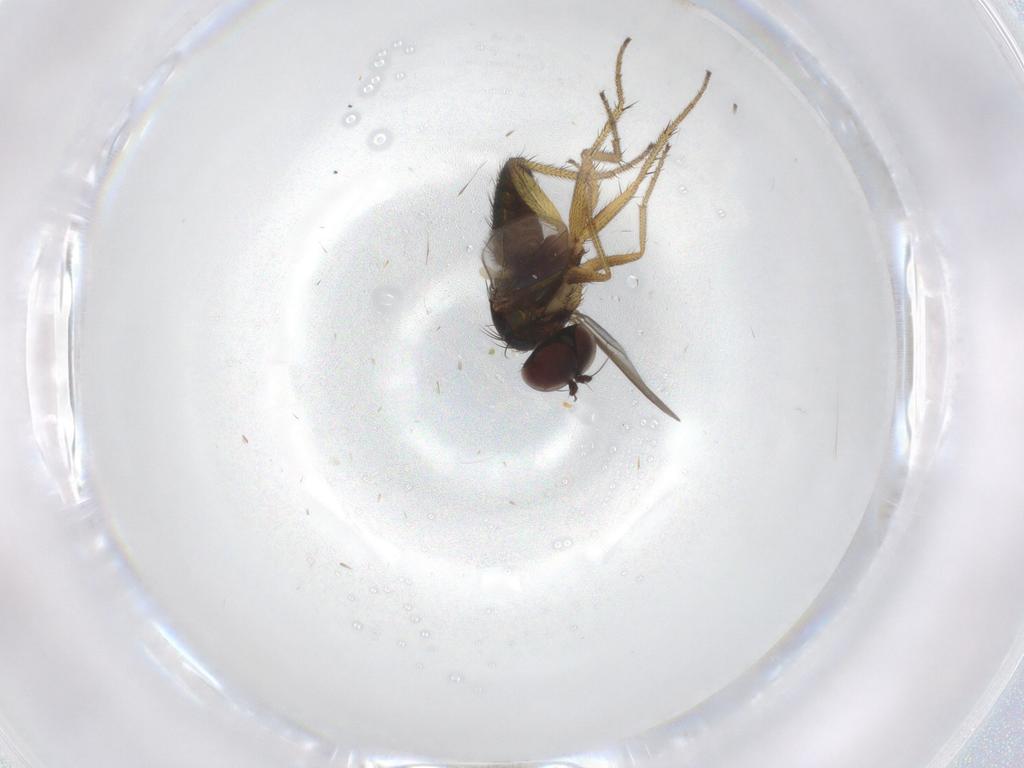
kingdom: Animalia
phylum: Arthropoda
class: Insecta
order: Diptera
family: Dolichopodidae
